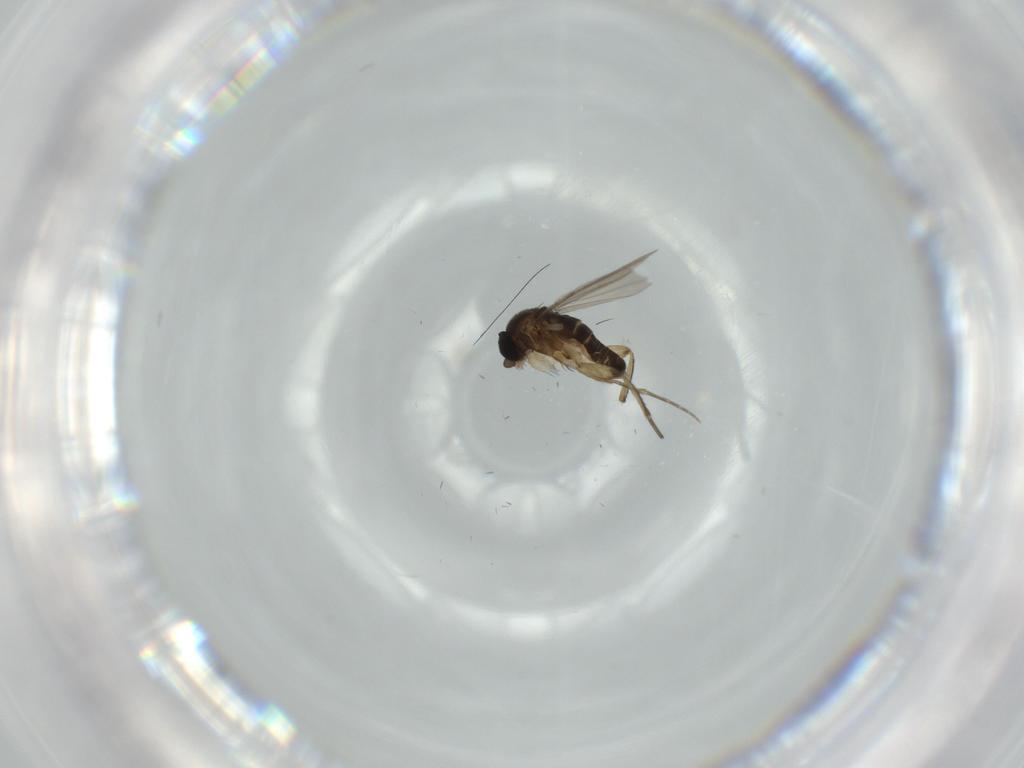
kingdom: Animalia
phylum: Arthropoda
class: Insecta
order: Diptera
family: Phoridae
